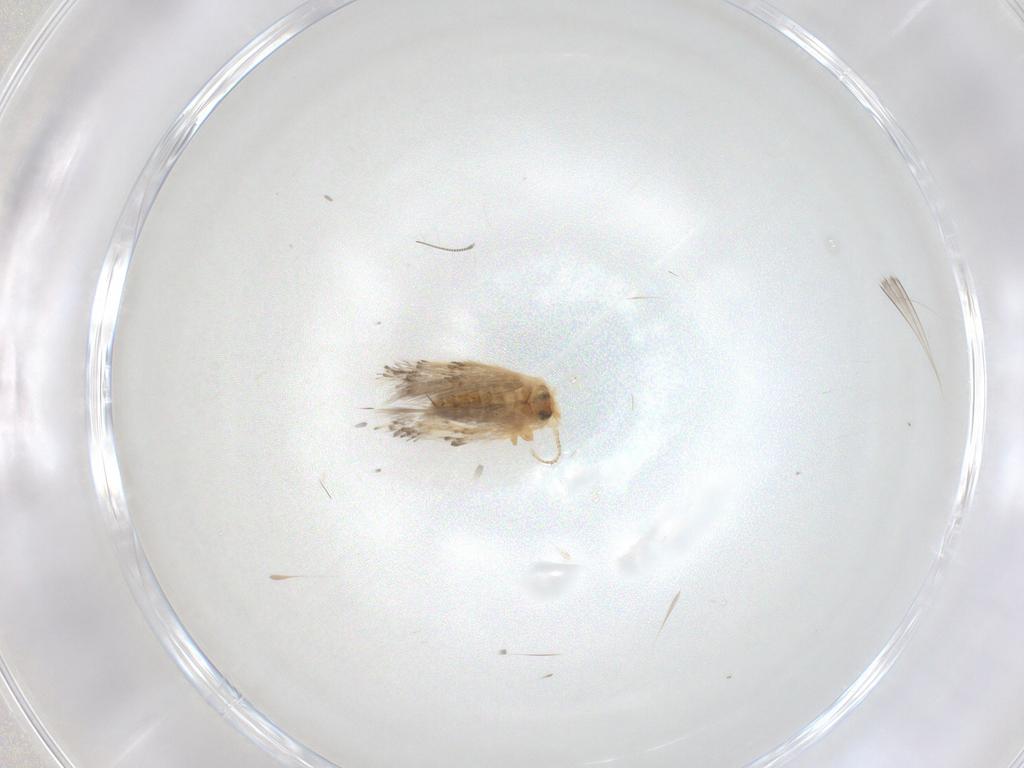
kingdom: Animalia
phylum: Arthropoda
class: Insecta
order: Lepidoptera
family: Nepticulidae
